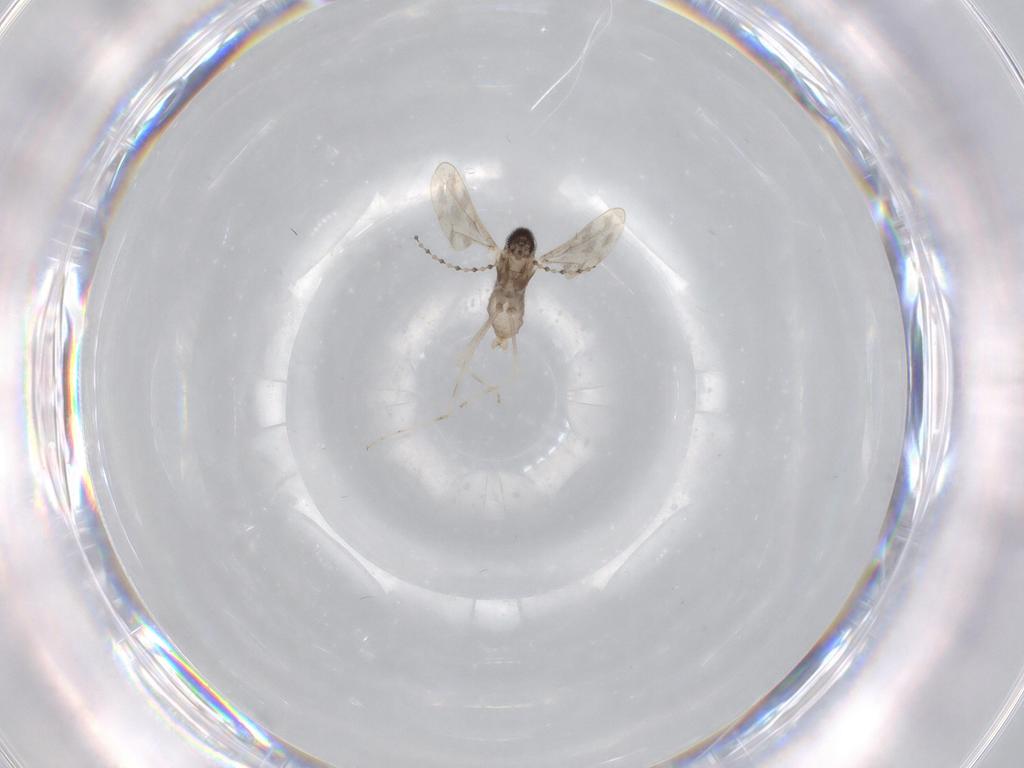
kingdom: Animalia
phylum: Arthropoda
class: Insecta
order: Diptera
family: Cecidomyiidae
